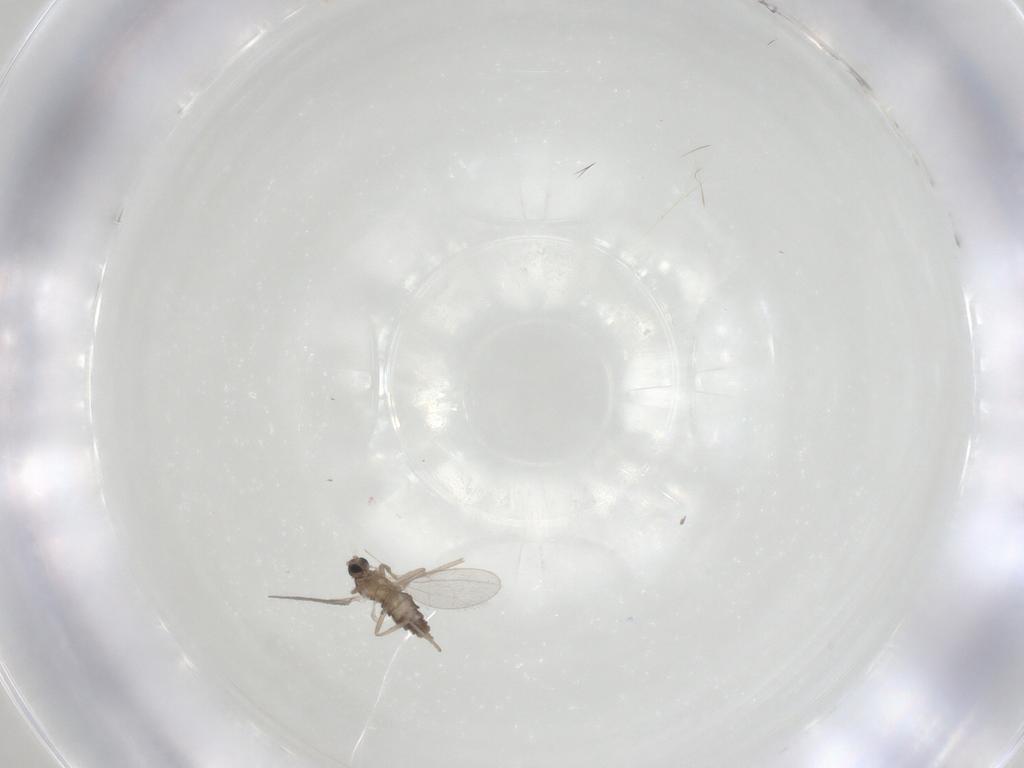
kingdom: Animalia
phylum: Arthropoda
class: Insecta
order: Diptera
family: Cecidomyiidae
